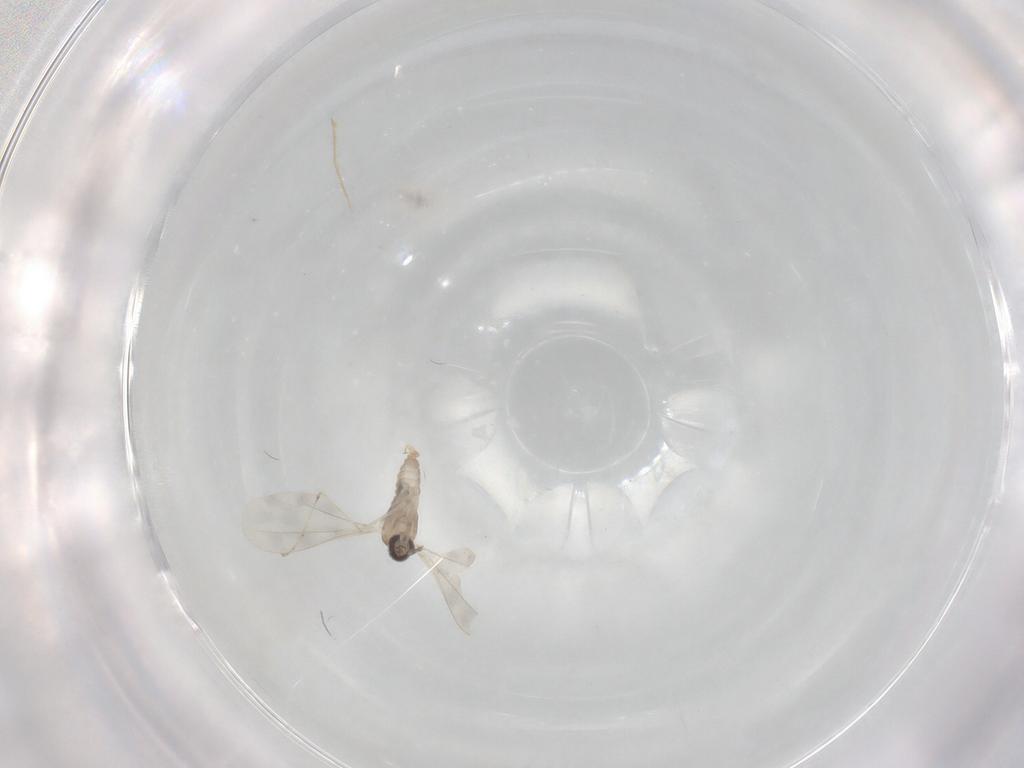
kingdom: Animalia
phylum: Arthropoda
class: Insecta
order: Diptera
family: Cecidomyiidae
